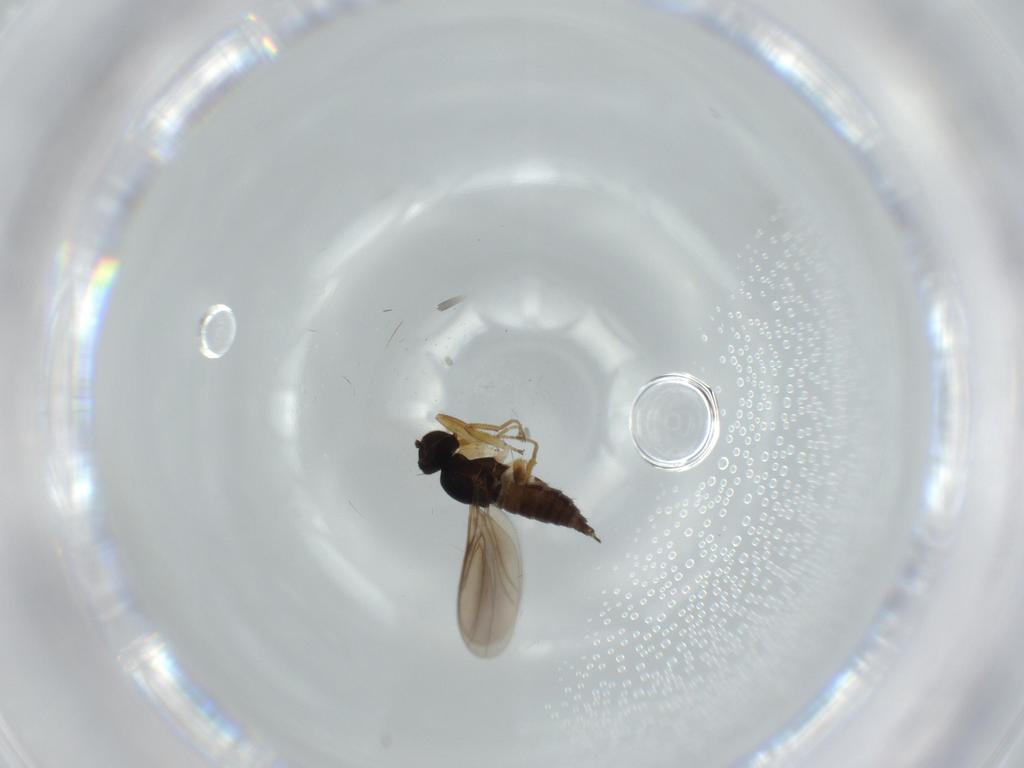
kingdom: Animalia
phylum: Arthropoda
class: Insecta
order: Diptera
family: Hybotidae
